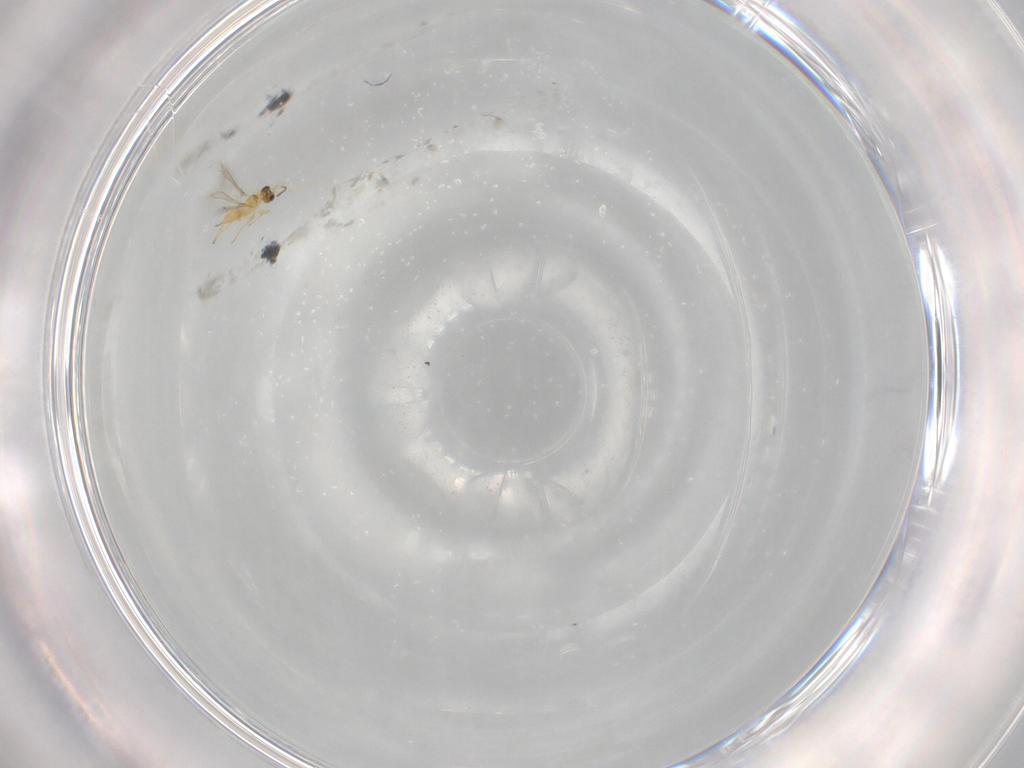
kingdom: Animalia
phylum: Arthropoda
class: Insecta
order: Hymenoptera
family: Mymaridae
